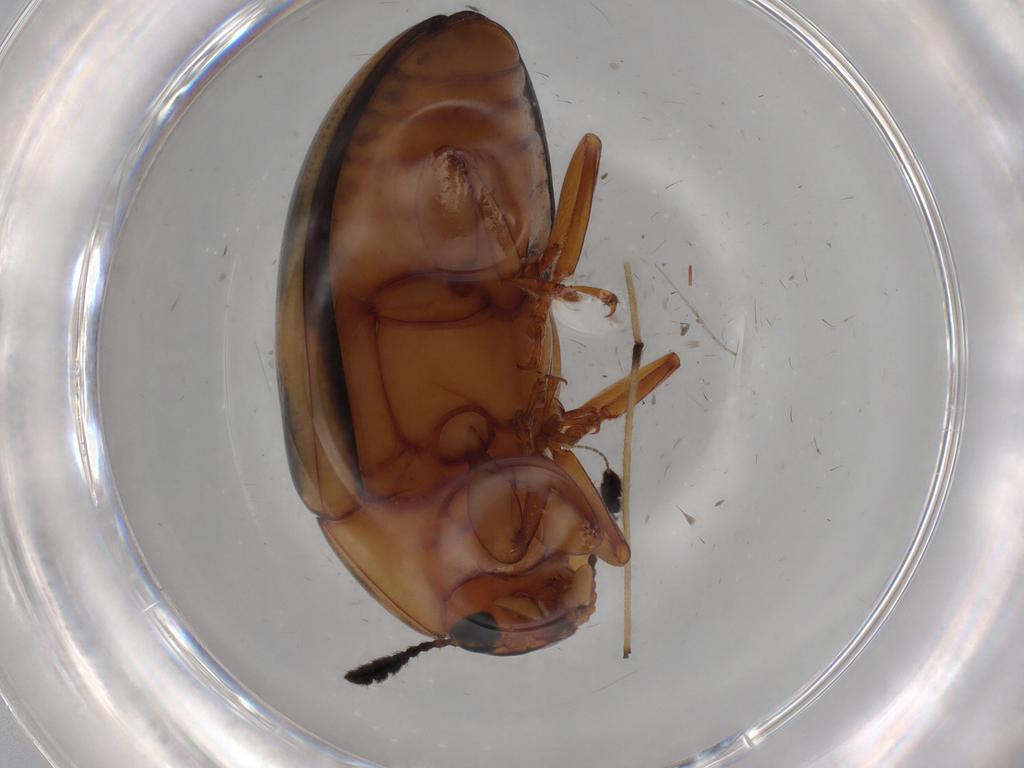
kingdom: Animalia
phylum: Arthropoda
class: Insecta
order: Coleoptera
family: Erotylidae
